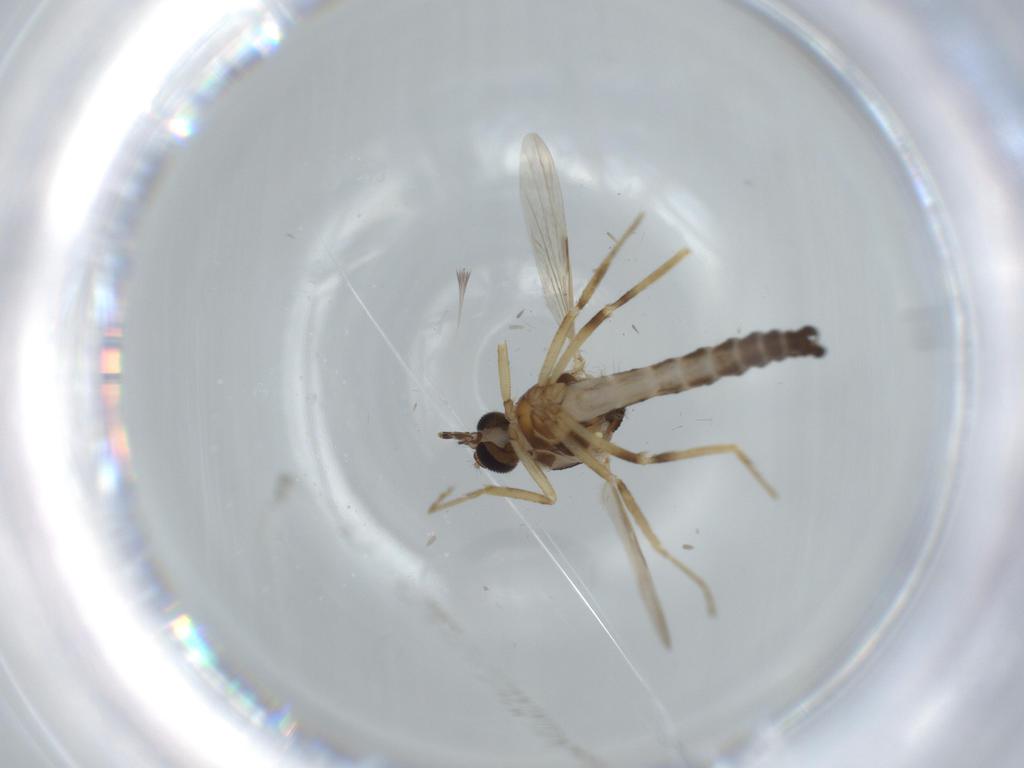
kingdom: Animalia
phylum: Arthropoda
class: Insecta
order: Diptera
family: Ceratopogonidae
